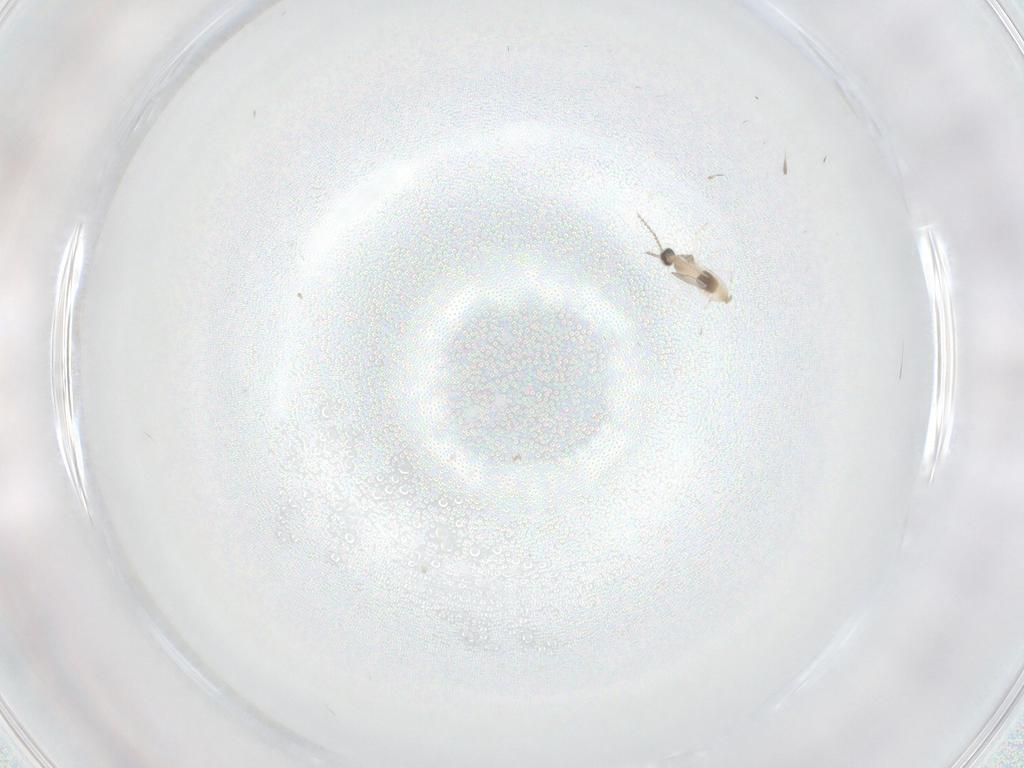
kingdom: Animalia
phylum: Arthropoda
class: Insecta
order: Diptera
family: Cecidomyiidae
